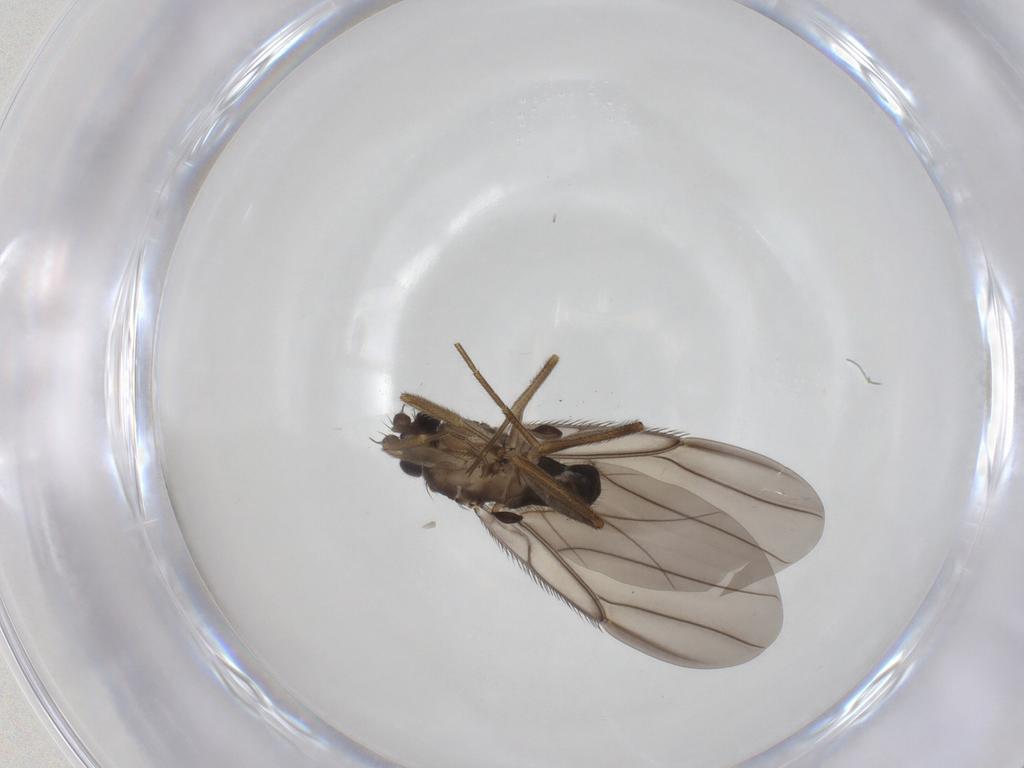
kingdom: Animalia
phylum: Arthropoda
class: Insecta
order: Diptera
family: Phoridae
